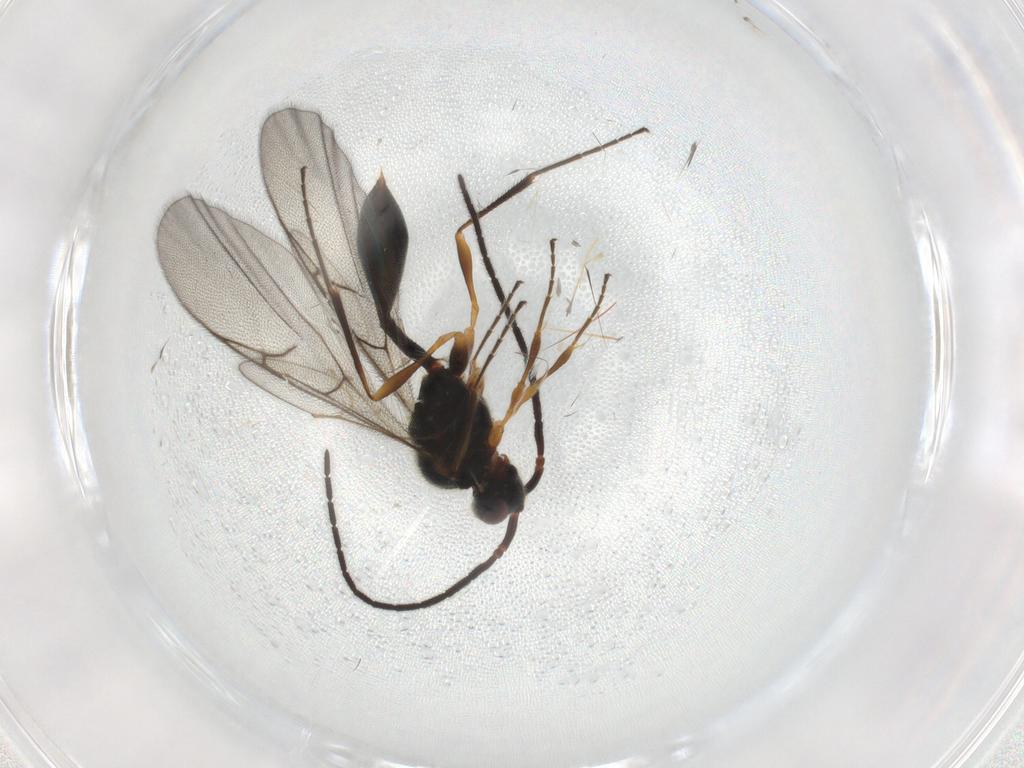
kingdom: Animalia
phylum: Arthropoda
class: Insecta
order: Hymenoptera
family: Diapriidae
